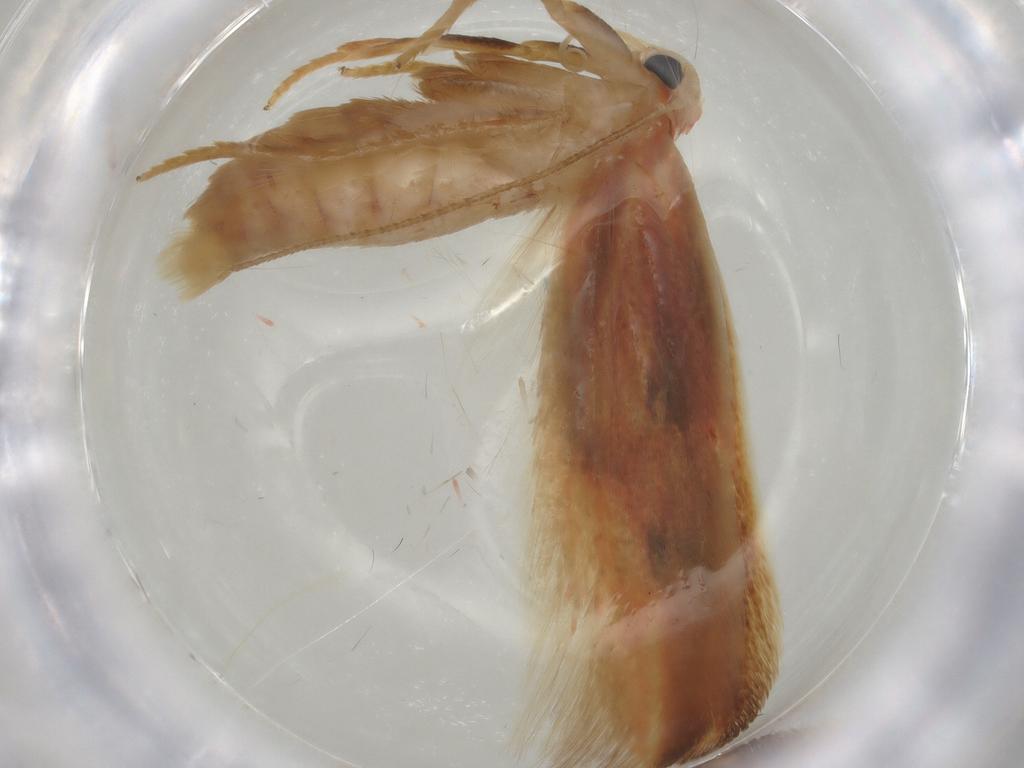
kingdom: Animalia
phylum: Arthropoda
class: Insecta
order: Lepidoptera
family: Geometridae
